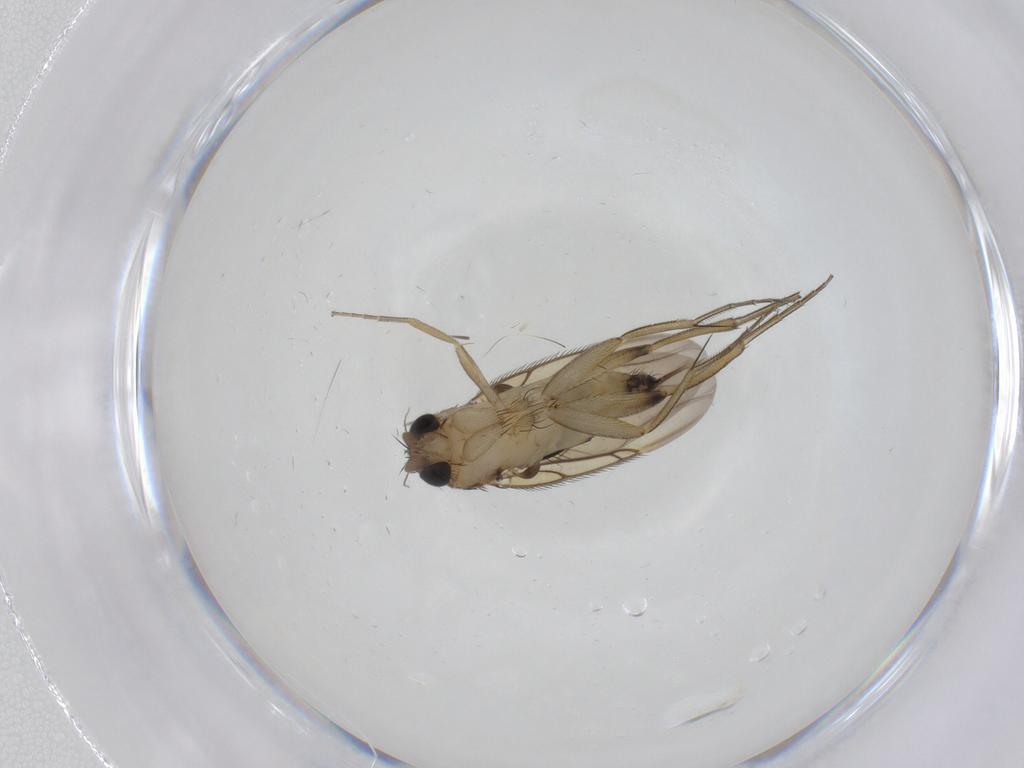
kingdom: Animalia
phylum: Arthropoda
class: Insecta
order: Diptera
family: Phoridae
